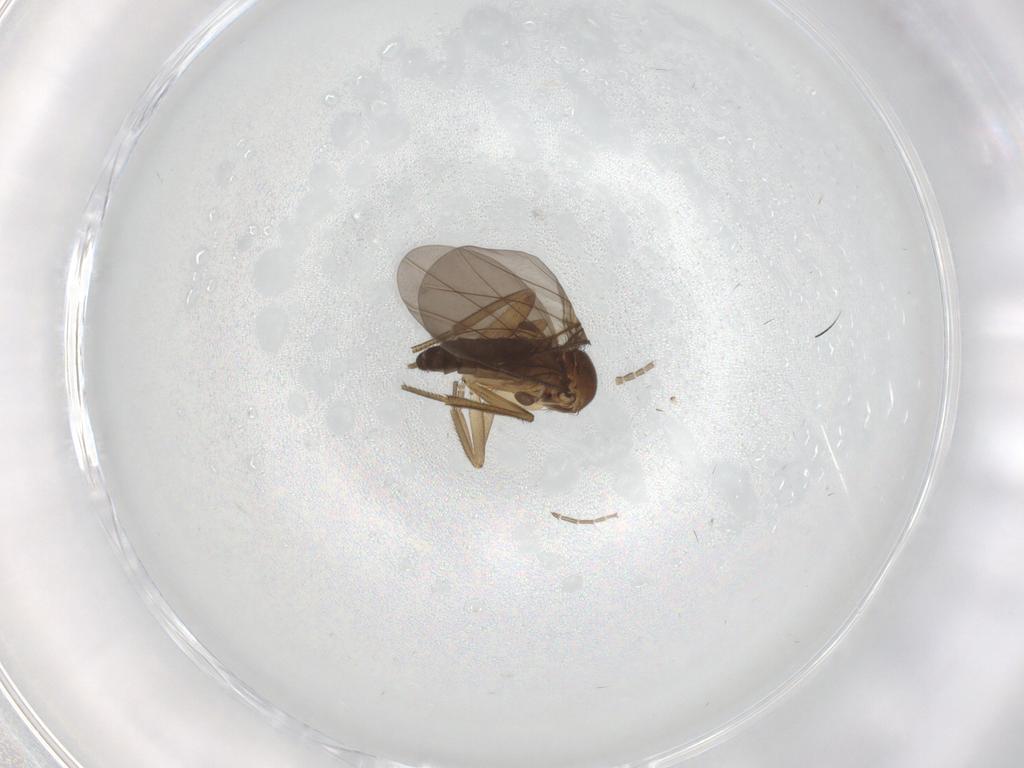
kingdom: Animalia
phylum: Arthropoda
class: Insecta
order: Diptera
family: Phoridae
